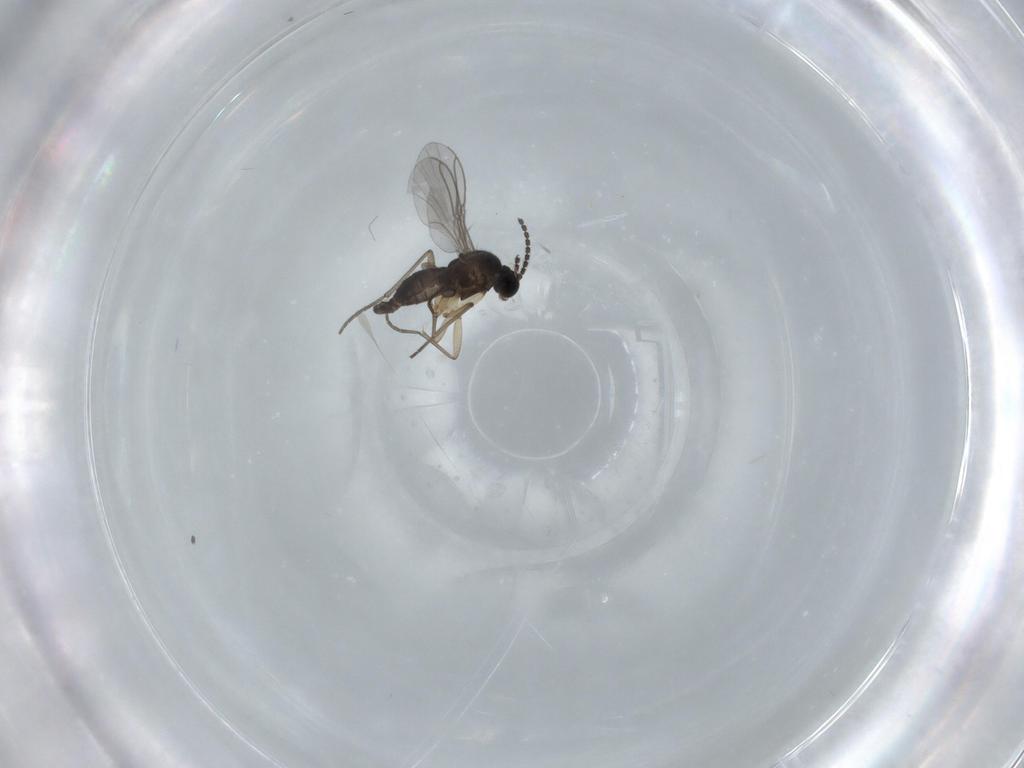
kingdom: Animalia
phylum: Arthropoda
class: Insecta
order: Diptera
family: Sciaridae
